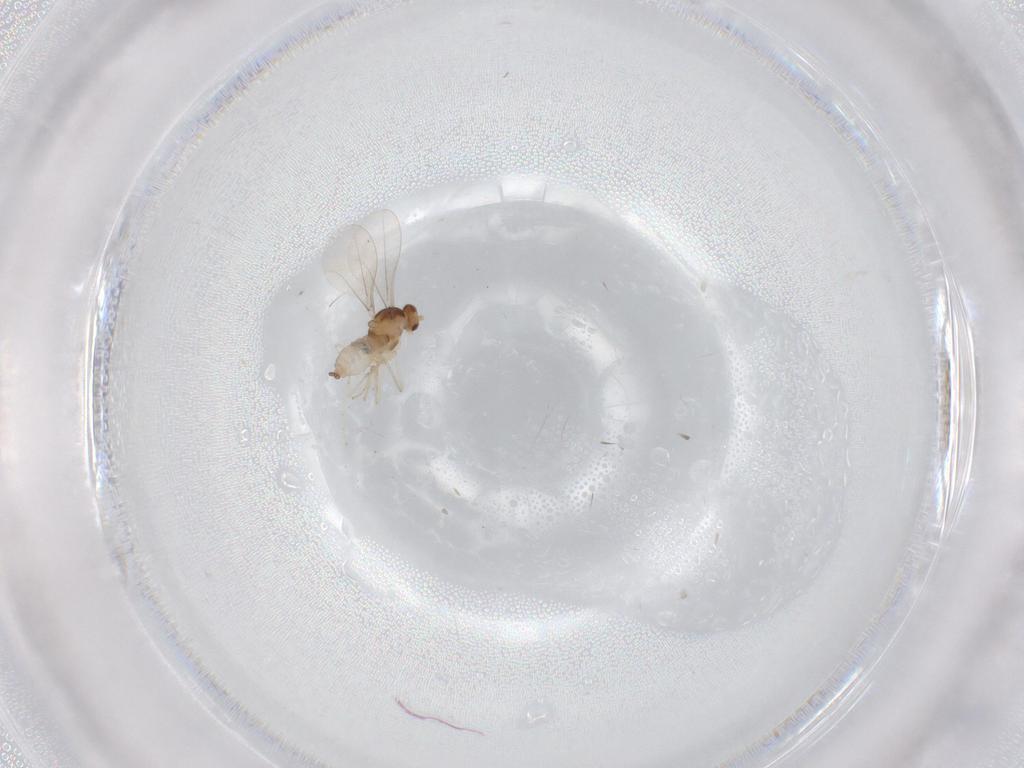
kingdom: Animalia
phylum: Arthropoda
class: Insecta
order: Diptera
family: Cecidomyiidae
